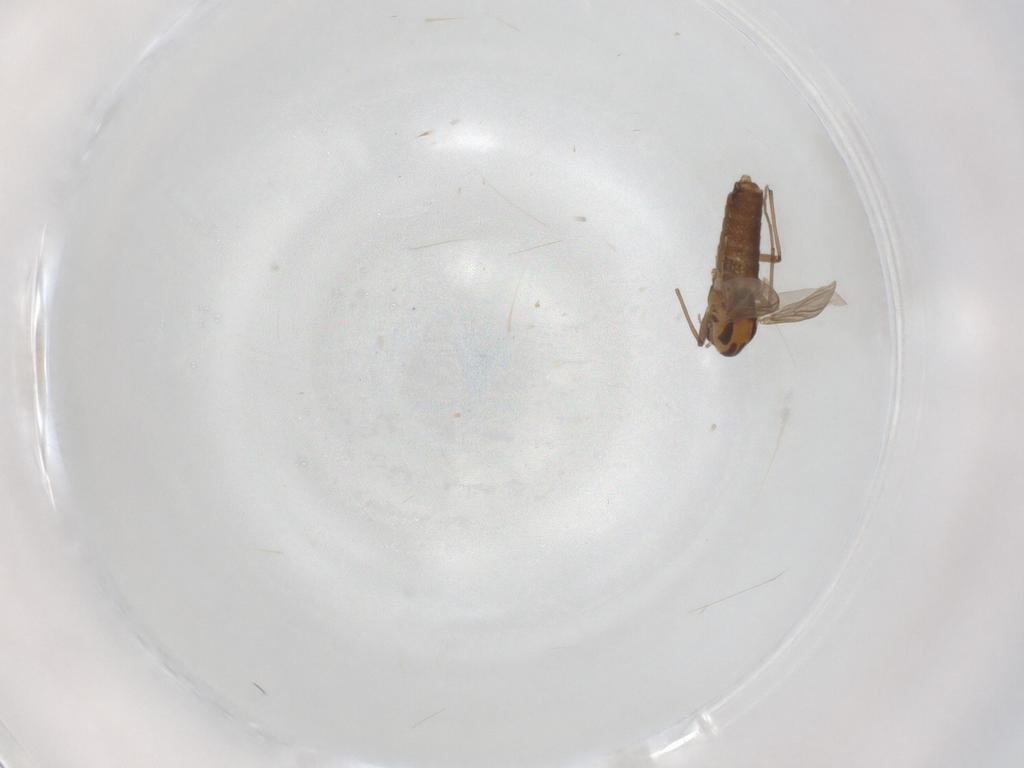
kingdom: Animalia
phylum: Arthropoda
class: Insecta
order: Diptera
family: Chironomidae
